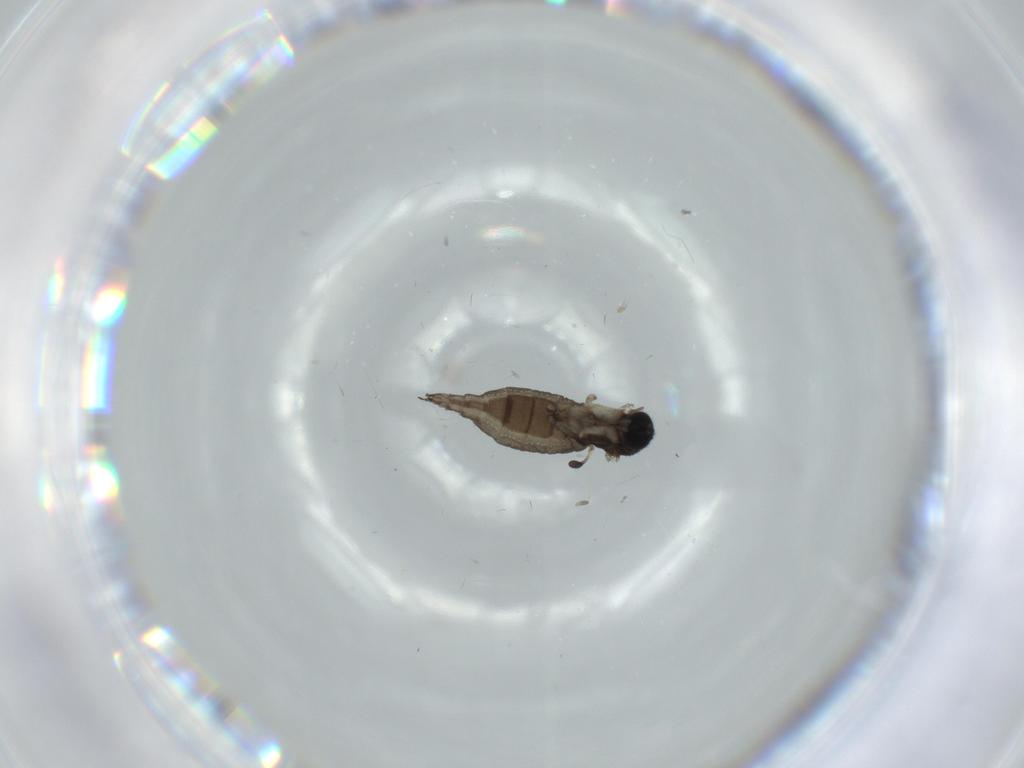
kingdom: Animalia
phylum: Arthropoda
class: Insecta
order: Diptera
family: Sciaridae
